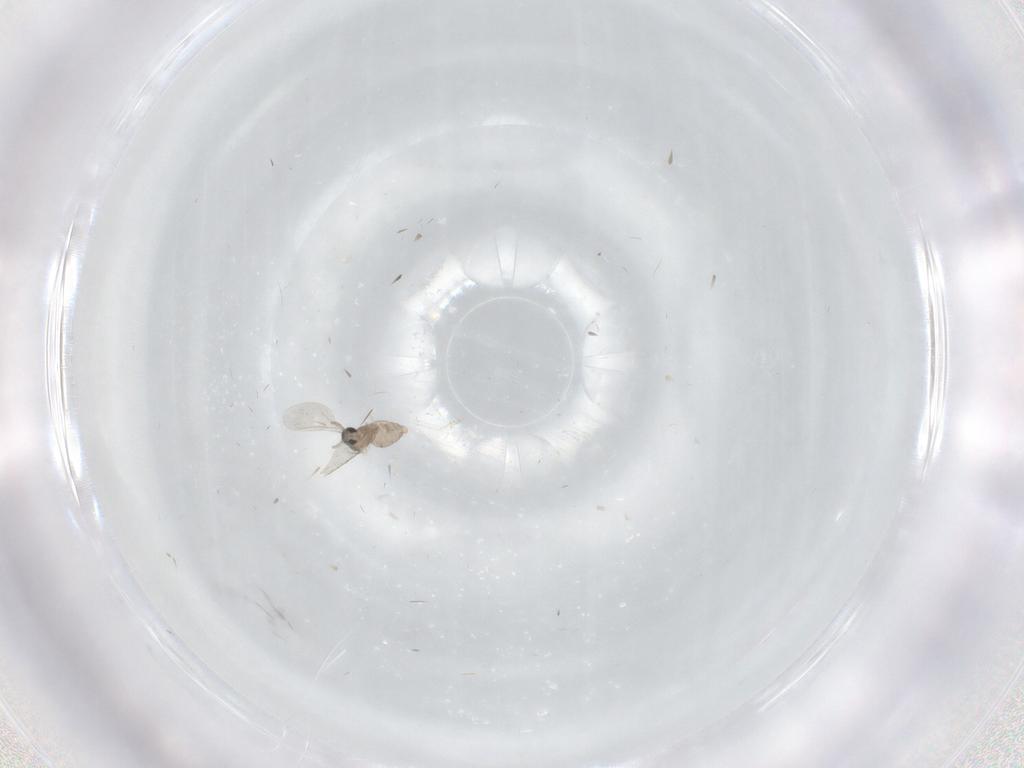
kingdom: Animalia
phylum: Arthropoda
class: Insecta
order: Diptera
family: Cecidomyiidae
